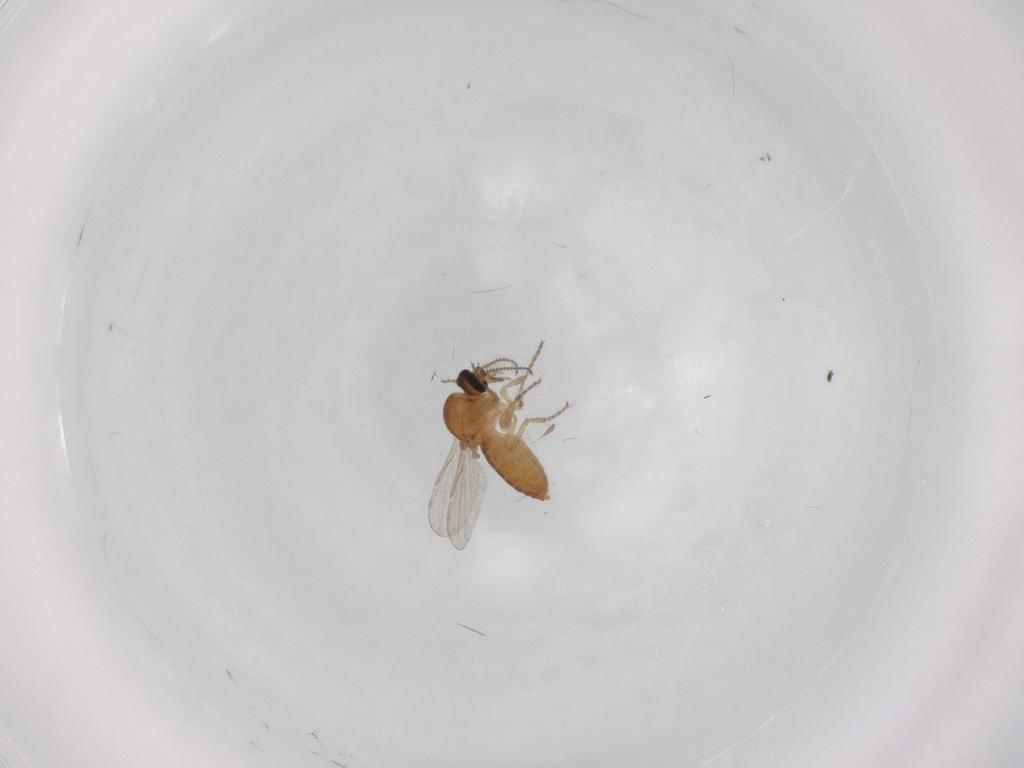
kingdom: Animalia
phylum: Arthropoda
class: Insecta
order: Diptera
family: Ceratopogonidae
